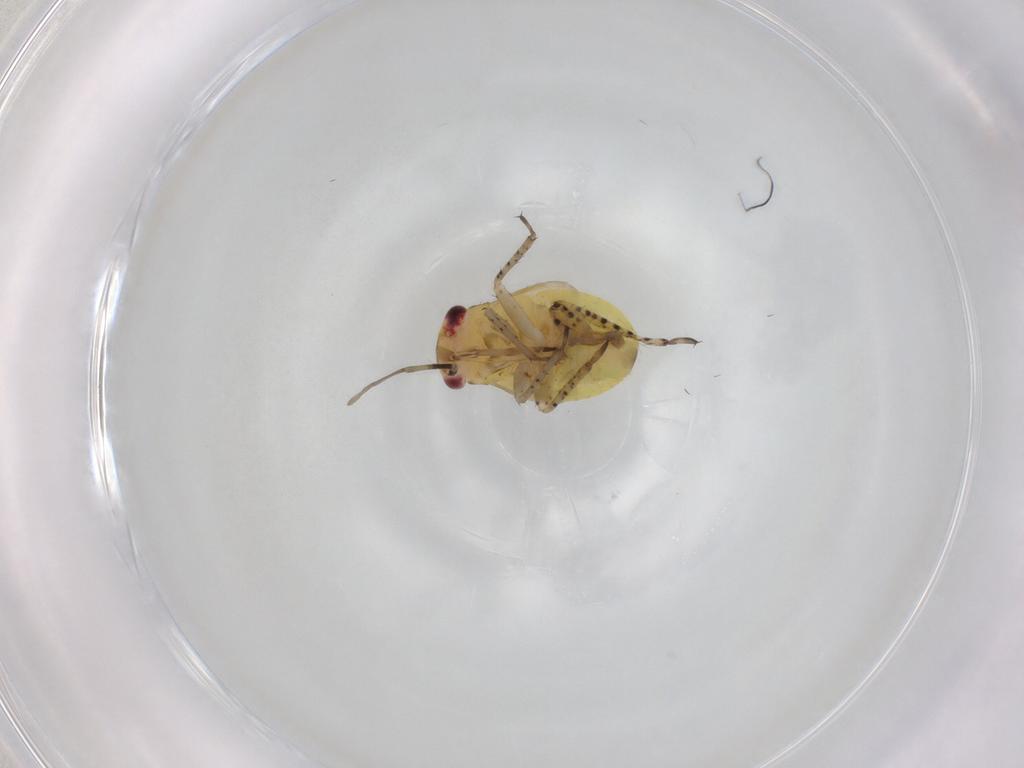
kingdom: Animalia
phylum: Arthropoda
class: Insecta
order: Hemiptera
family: Miridae
